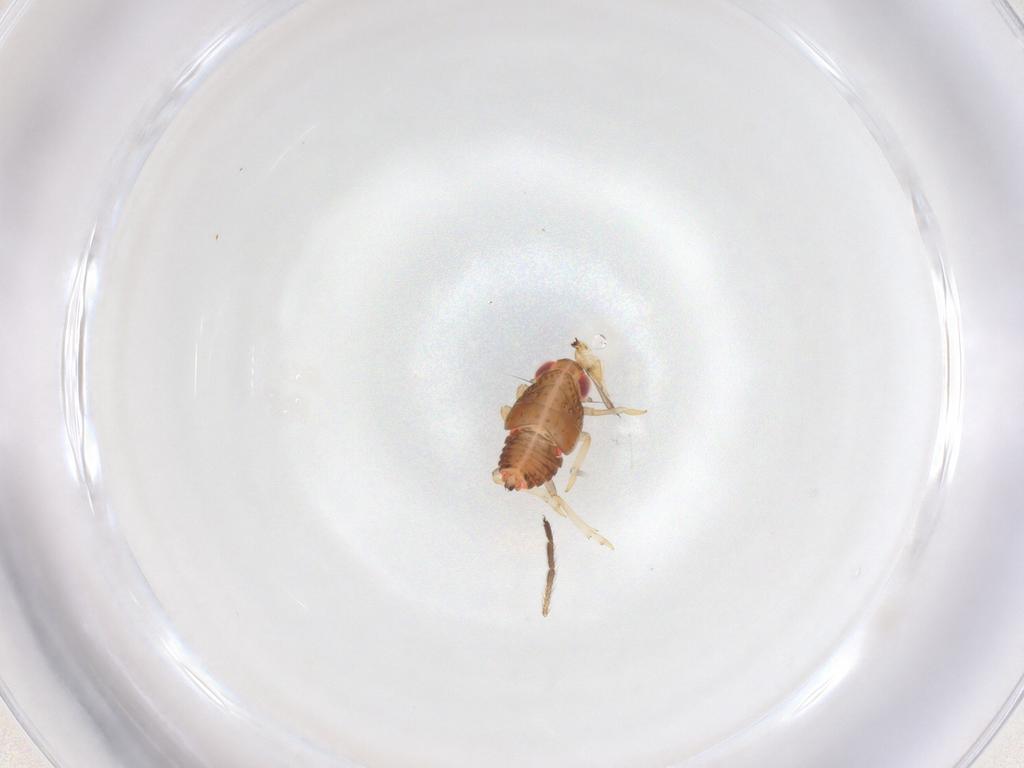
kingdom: Animalia
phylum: Arthropoda
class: Insecta
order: Hemiptera
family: Issidae
